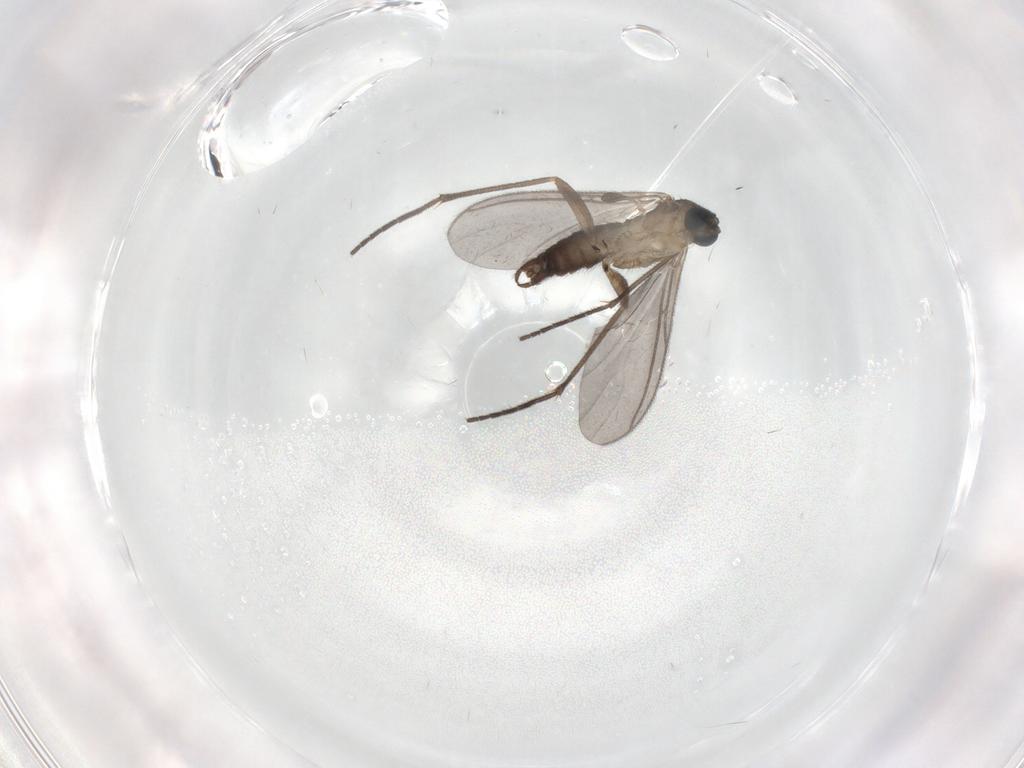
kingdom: Animalia
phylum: Arthropoda
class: Insecta
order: Diptera
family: Sciaridae
